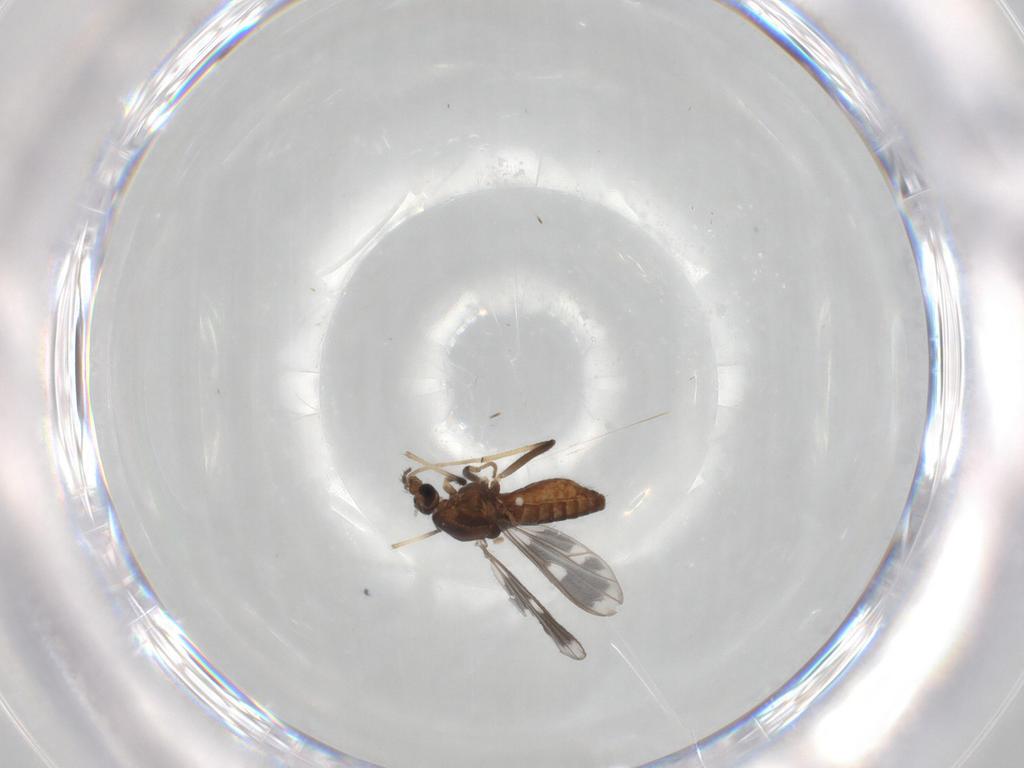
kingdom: Animalia
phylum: Arthropoda
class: Insecta
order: Diptera
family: Chironomidae
